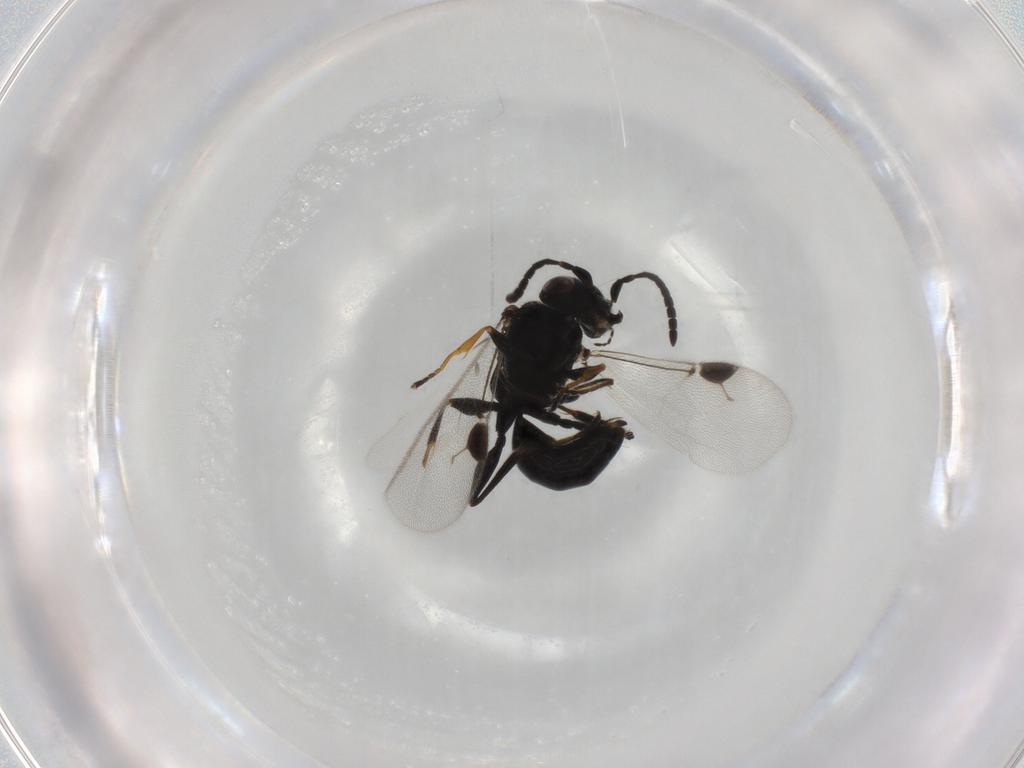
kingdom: Animalia
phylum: Arthropoda
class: Insecta
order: Hymenoptera
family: Dryinidae
